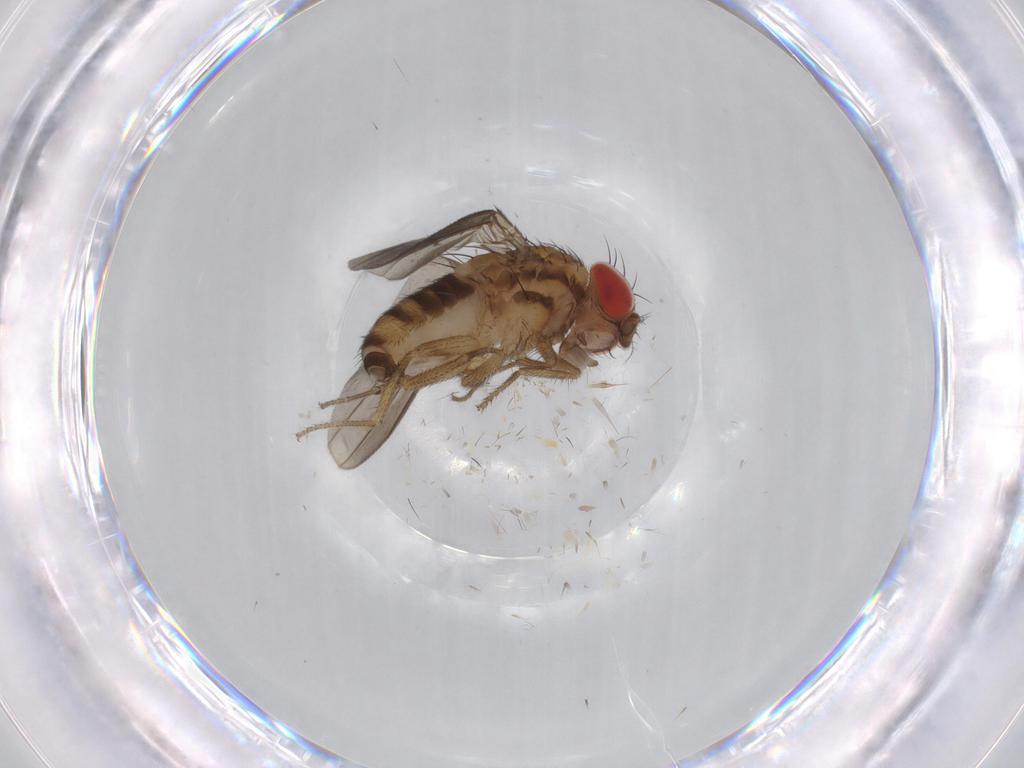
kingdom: Animalia
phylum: Arthropoda
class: Insecta
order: Diptera
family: Drosophilidae
